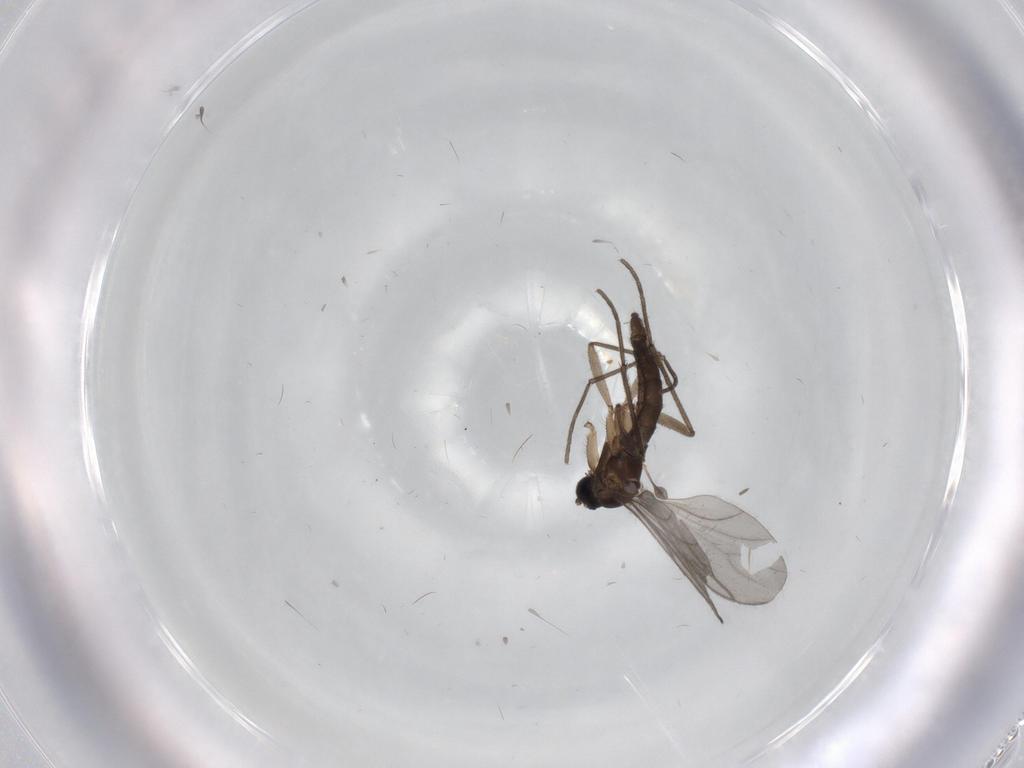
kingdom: Animalia
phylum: Arthropoda
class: Insecta
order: Diptera
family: Sciaridae
